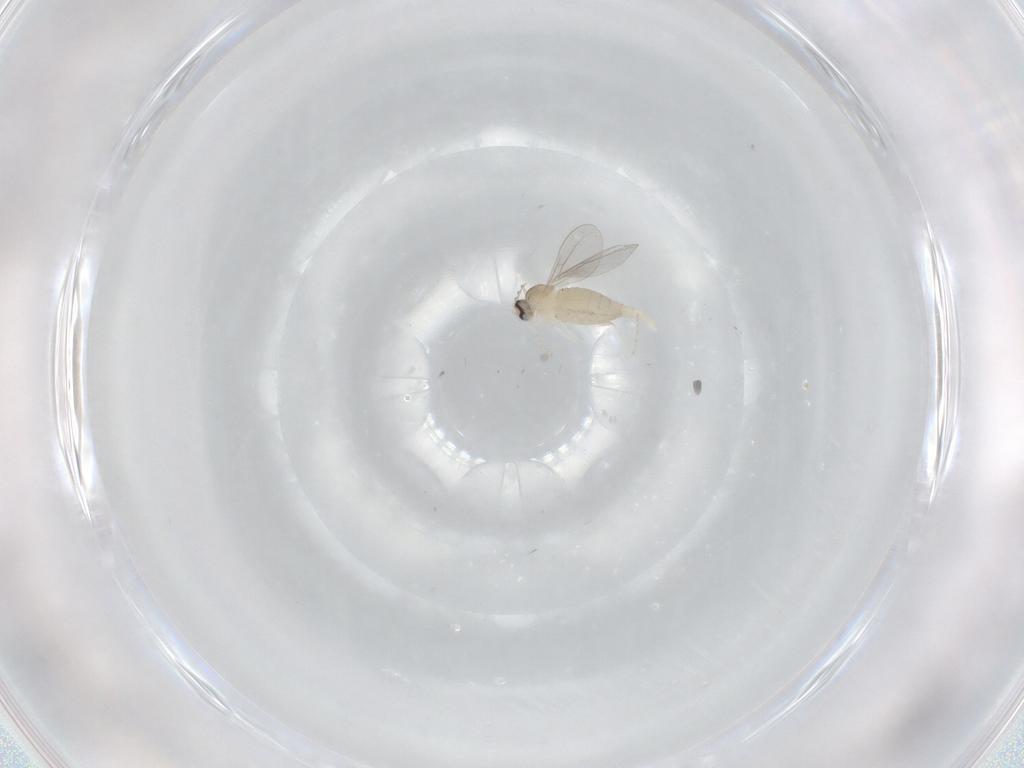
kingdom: Animalia
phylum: Arthropoda
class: Insecta
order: Diptera
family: Cecidomyiidae
